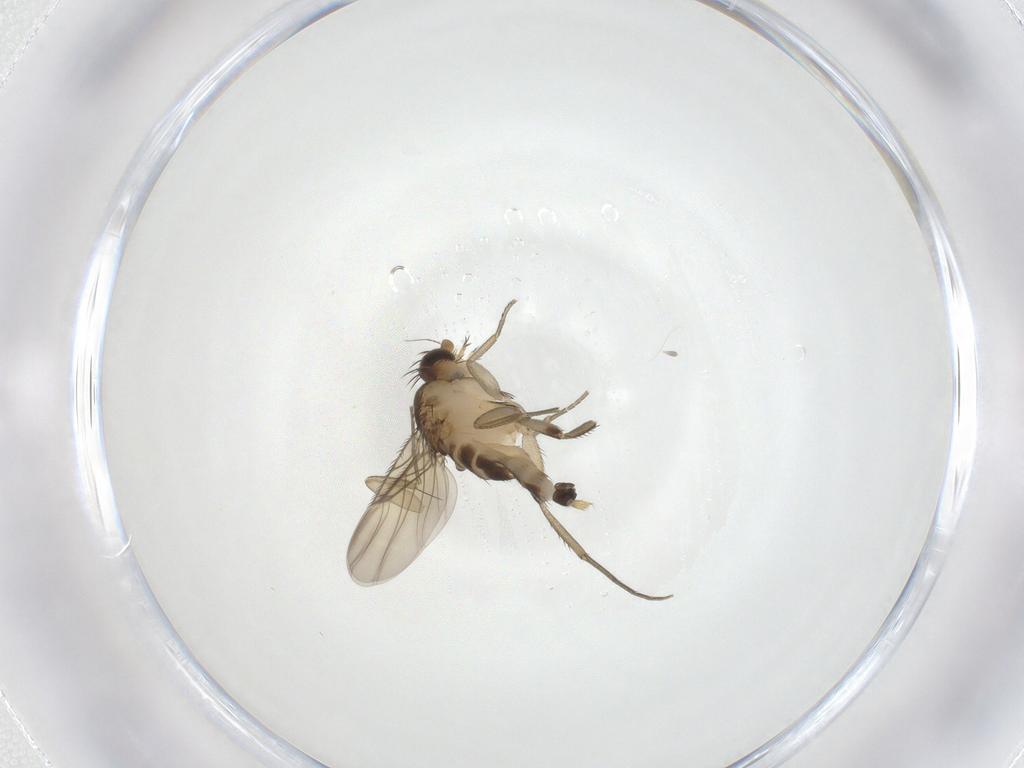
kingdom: Animalia
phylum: Arthropoda
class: Insecta
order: Diptera
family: Phoridae
